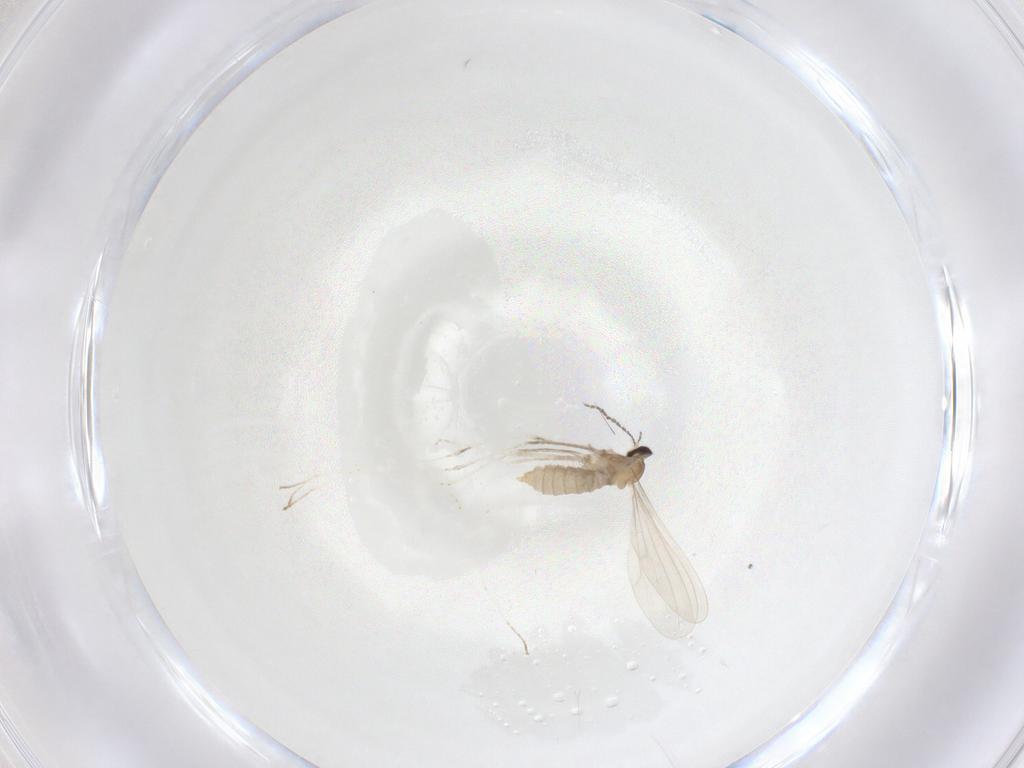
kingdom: Animalia
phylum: Arthropoda
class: Insecta
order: Diptera
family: Cecidomyiidae
